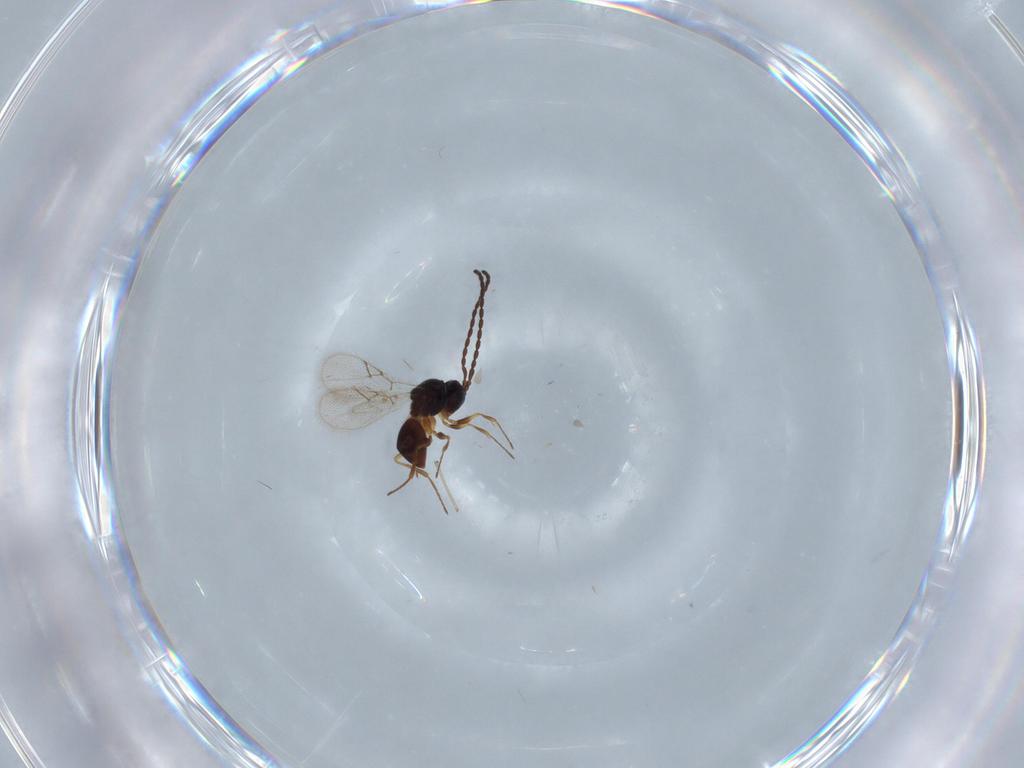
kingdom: Animalia
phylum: Arthropoda
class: Insecta
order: Hymenoptera
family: Figitidae
